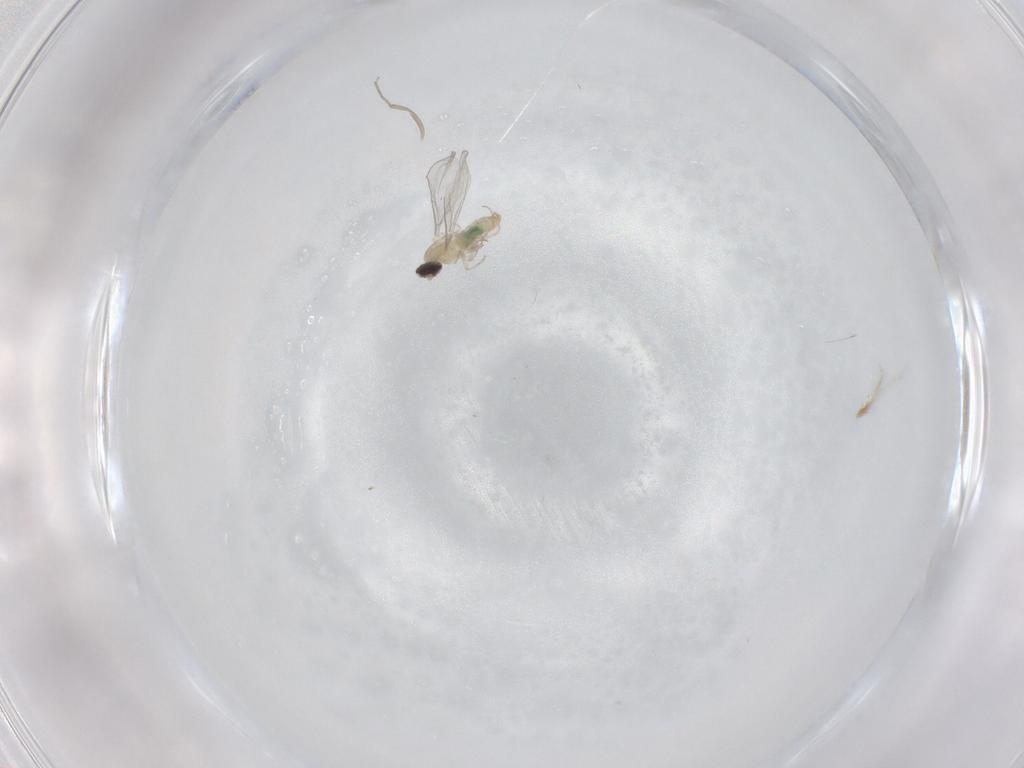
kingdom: Animalia
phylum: Arthropoda
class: Insecta
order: Diptera
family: Cecidomyiidae
